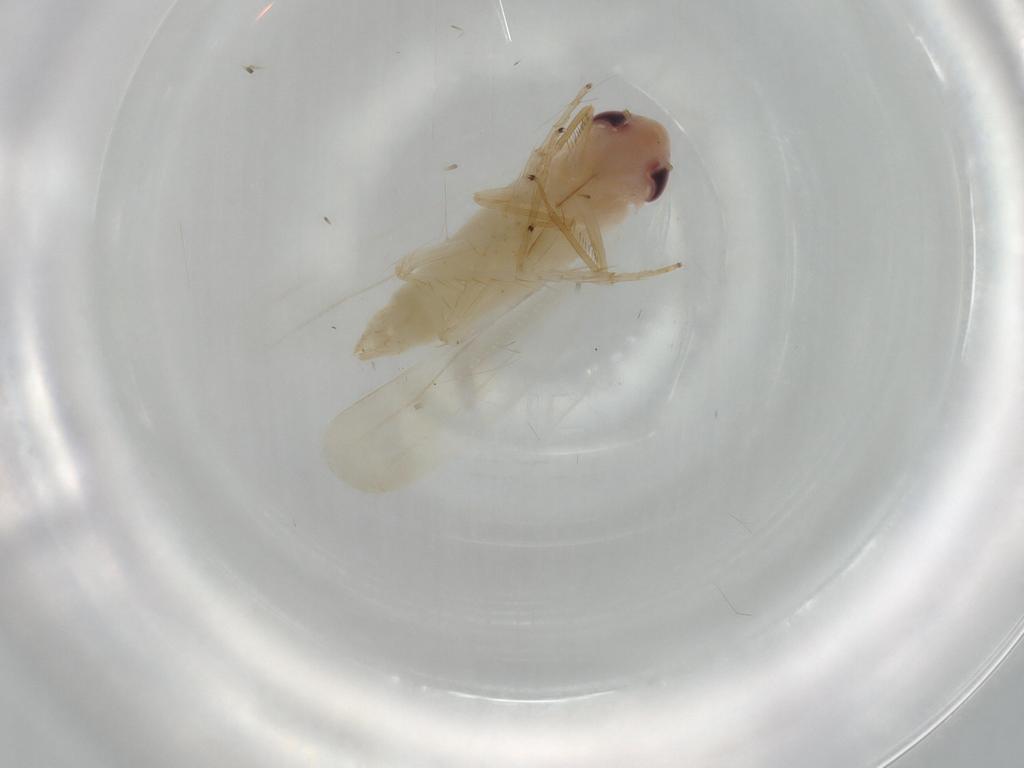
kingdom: Animalia
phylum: Arthropoda
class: Insecta
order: Hemiptera
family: Cicadellidae
